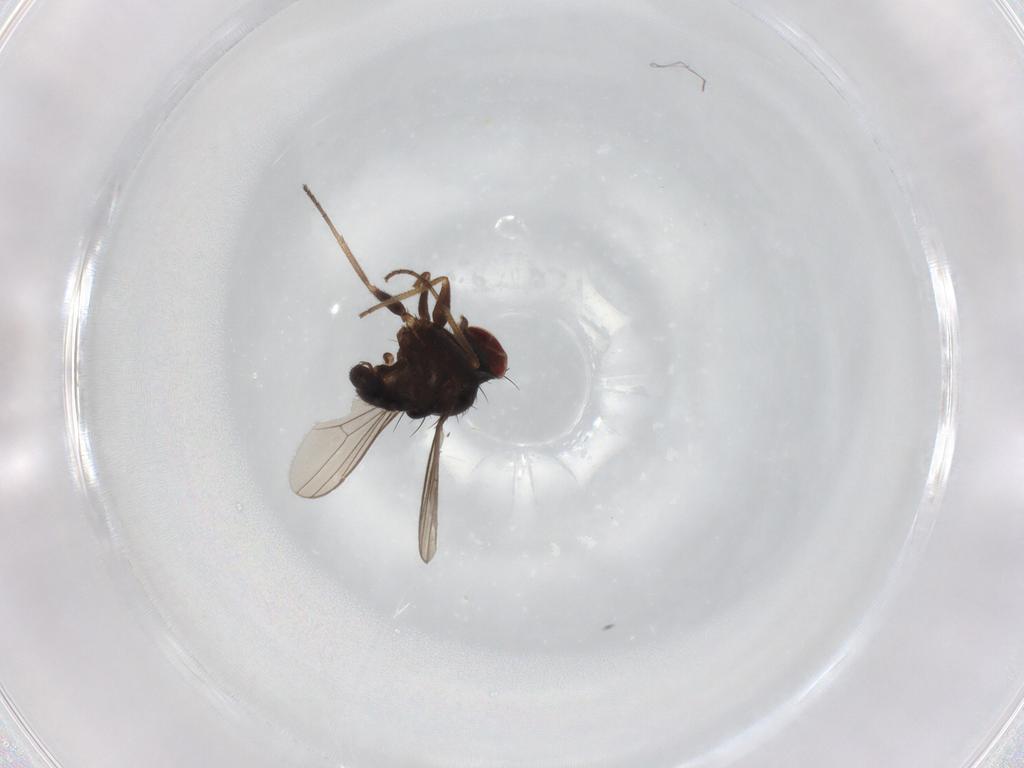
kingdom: Animalia
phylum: Arthropoda
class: Insecta
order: Diptera
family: Dolichopodidae
